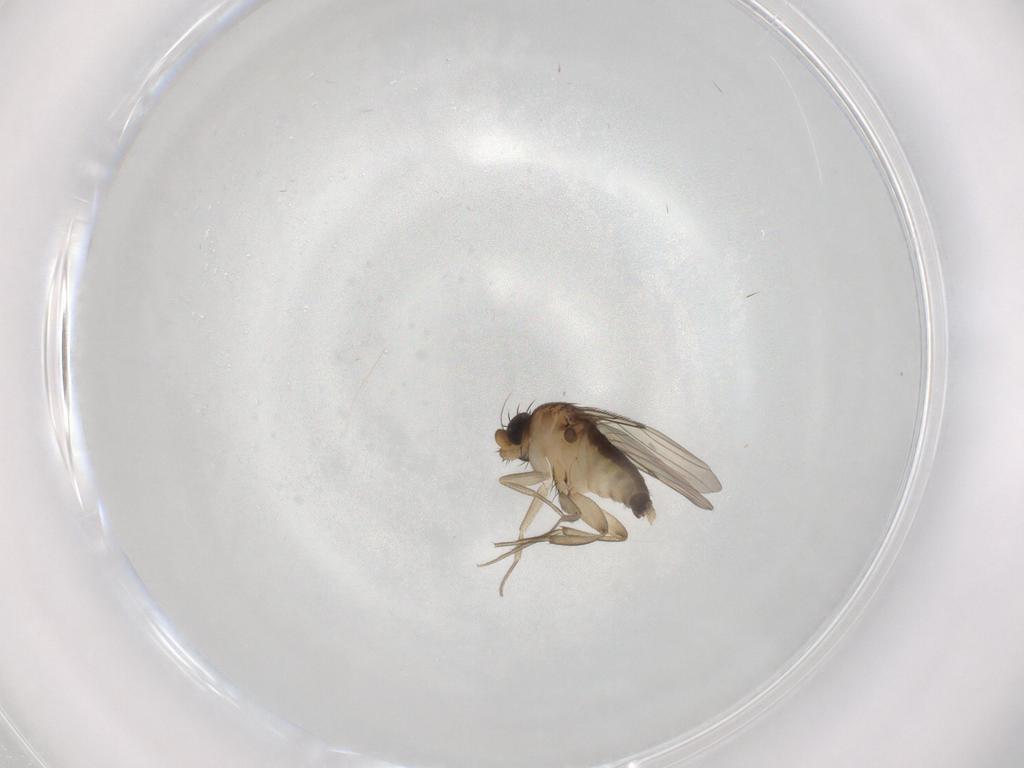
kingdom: Animalia
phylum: Arthropoda
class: Insecta
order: Diptera
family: Phoridae
